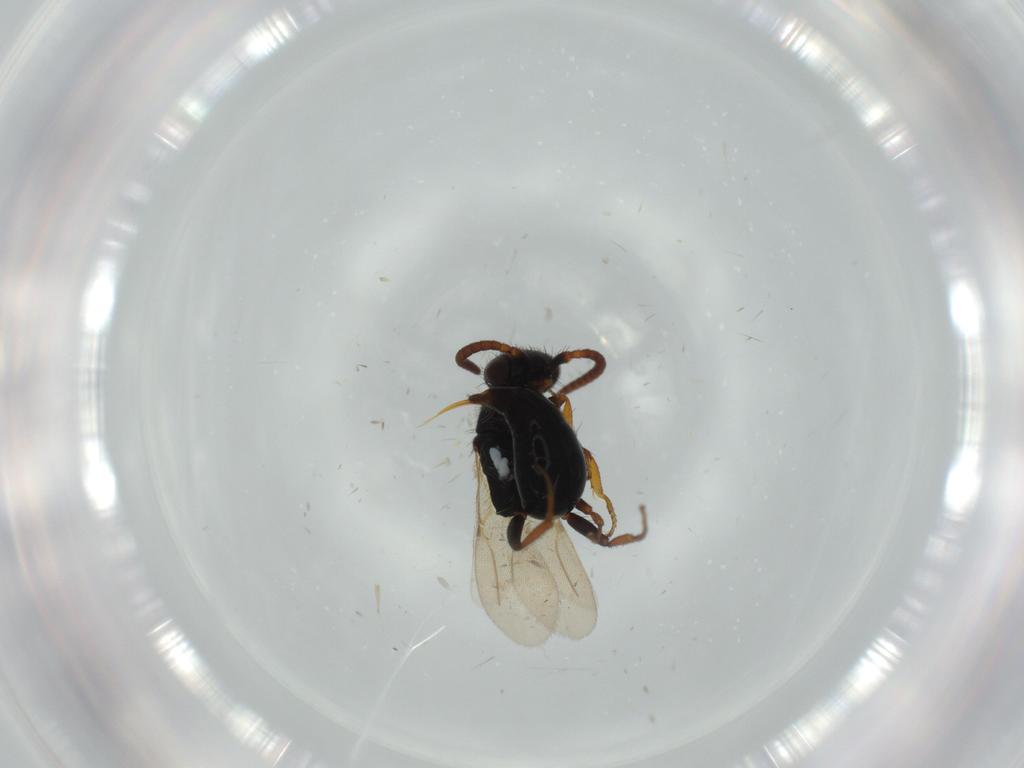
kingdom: Animalia
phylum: Arthropoda
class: Insecta
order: Hymenoptera
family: Bethylidae
